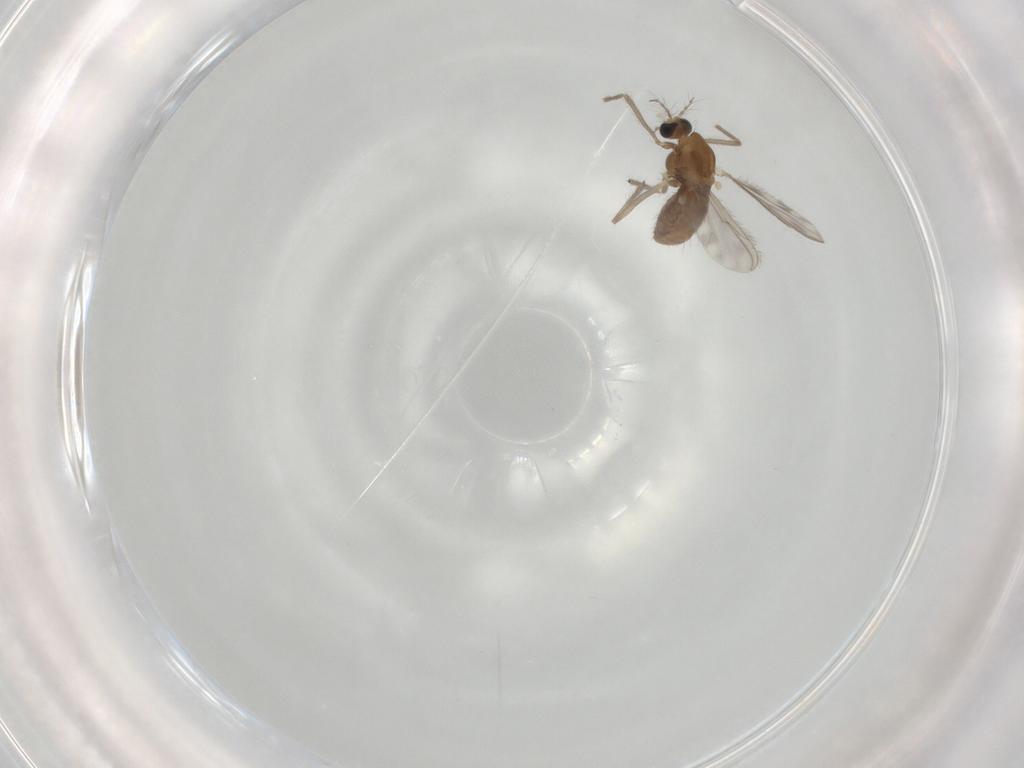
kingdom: Animalia
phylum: Arthropoda
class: Insecta
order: Diptera
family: Chironomidae
